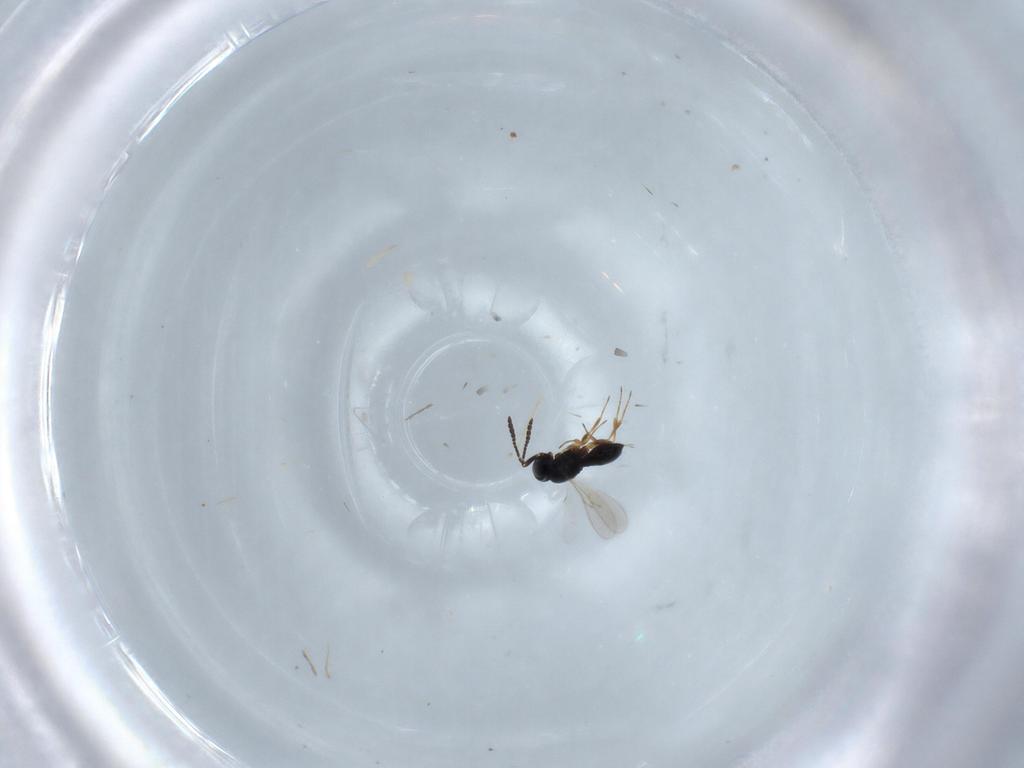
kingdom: Animalia
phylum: Arthropoda
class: Insecta
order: Hymenoptera
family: Scelionidae
